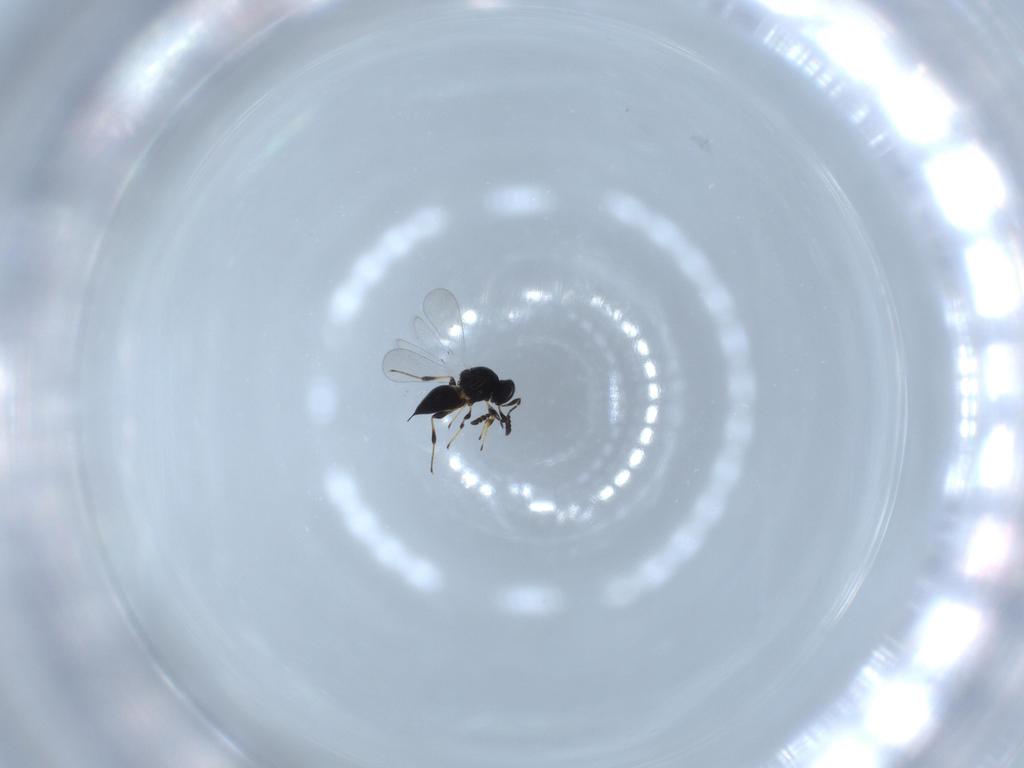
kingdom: Animalia
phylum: Arthropoda
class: Insecta
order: Hymenoptera
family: Platygastridae
